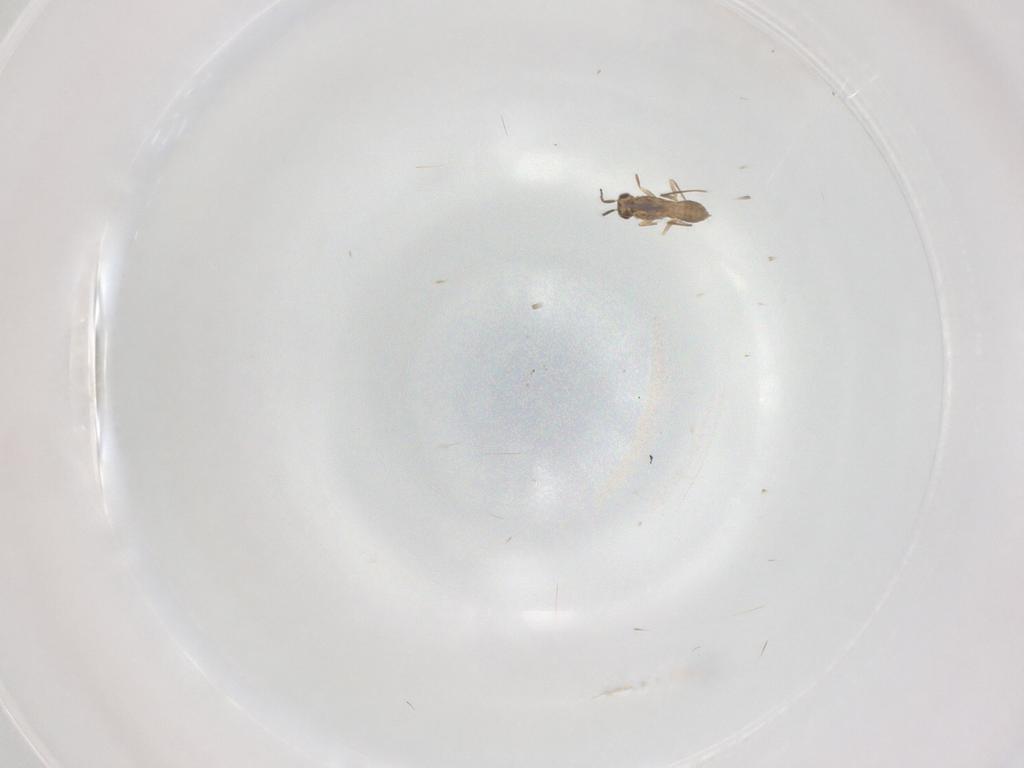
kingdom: Animalia
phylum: Arthropoda
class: Insecta
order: Hymenoptera
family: Mymaridae
